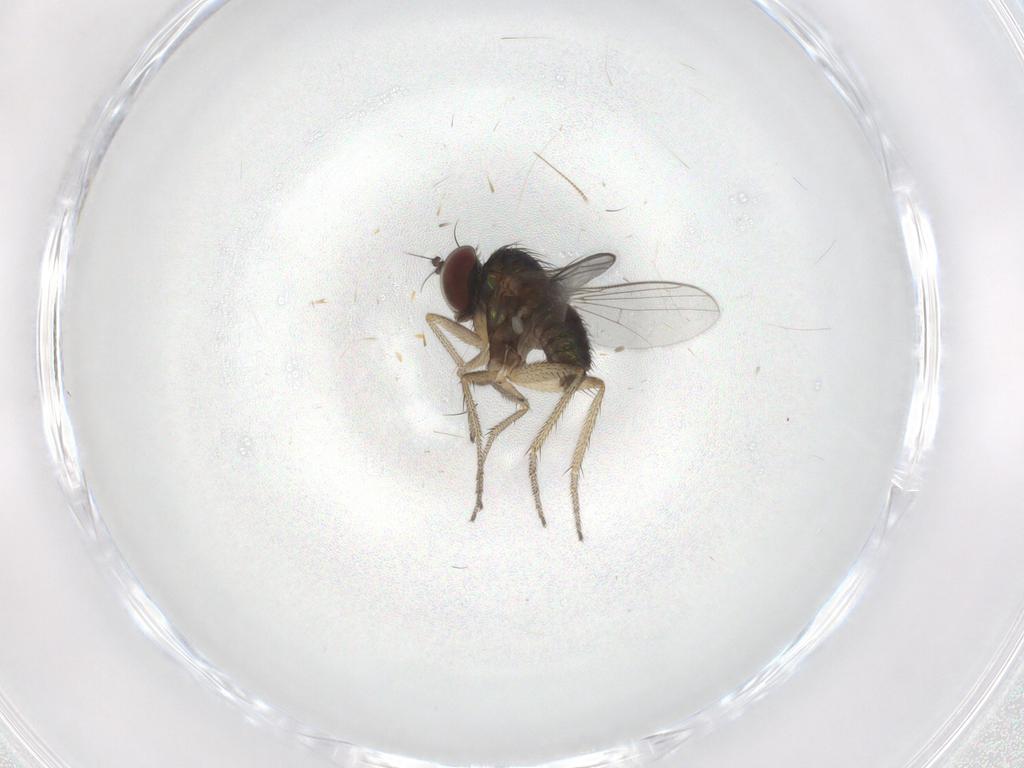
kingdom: Animalia
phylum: Arthropoda
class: Insecta
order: Diptera
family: Dolichopodidae
